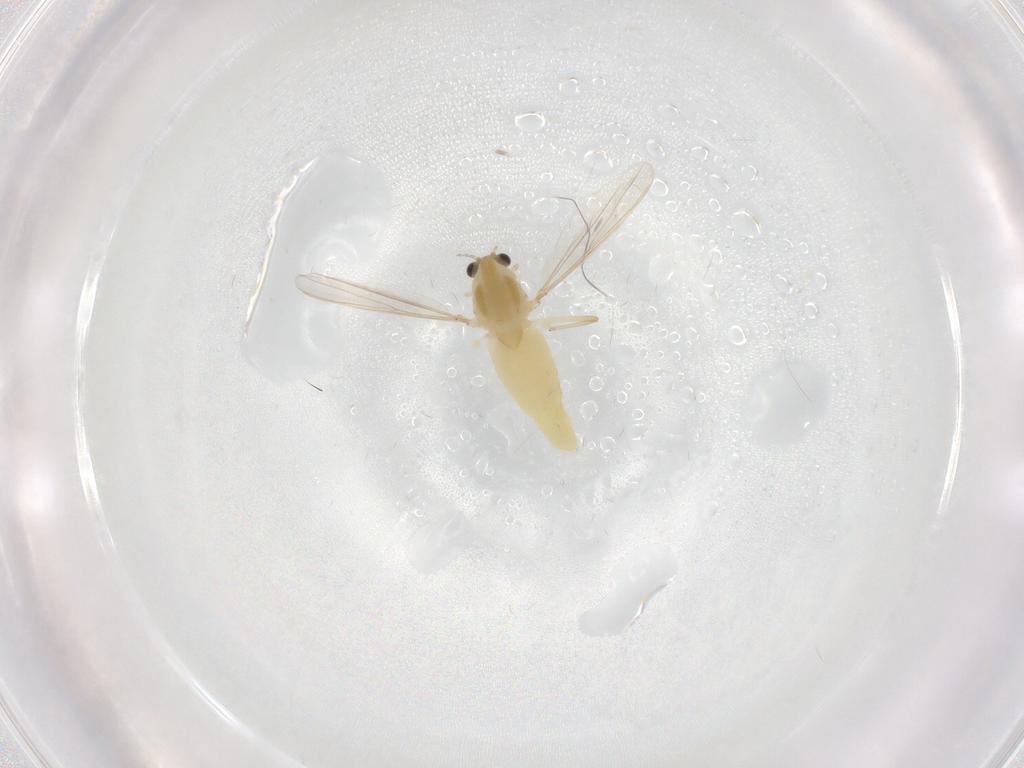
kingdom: Animalia
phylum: Arthropoda
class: Insecta
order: Diptera
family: Chironomidae
